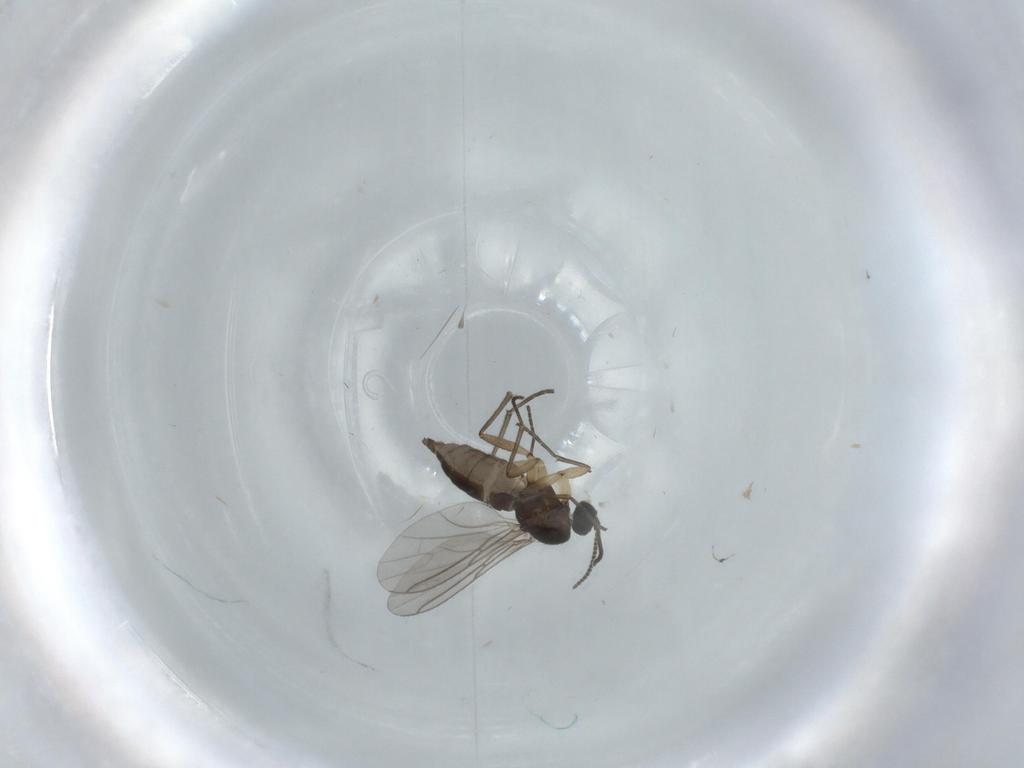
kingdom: Animalia
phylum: Arthropoda
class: Insecta
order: Diptera
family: Sciaridae
